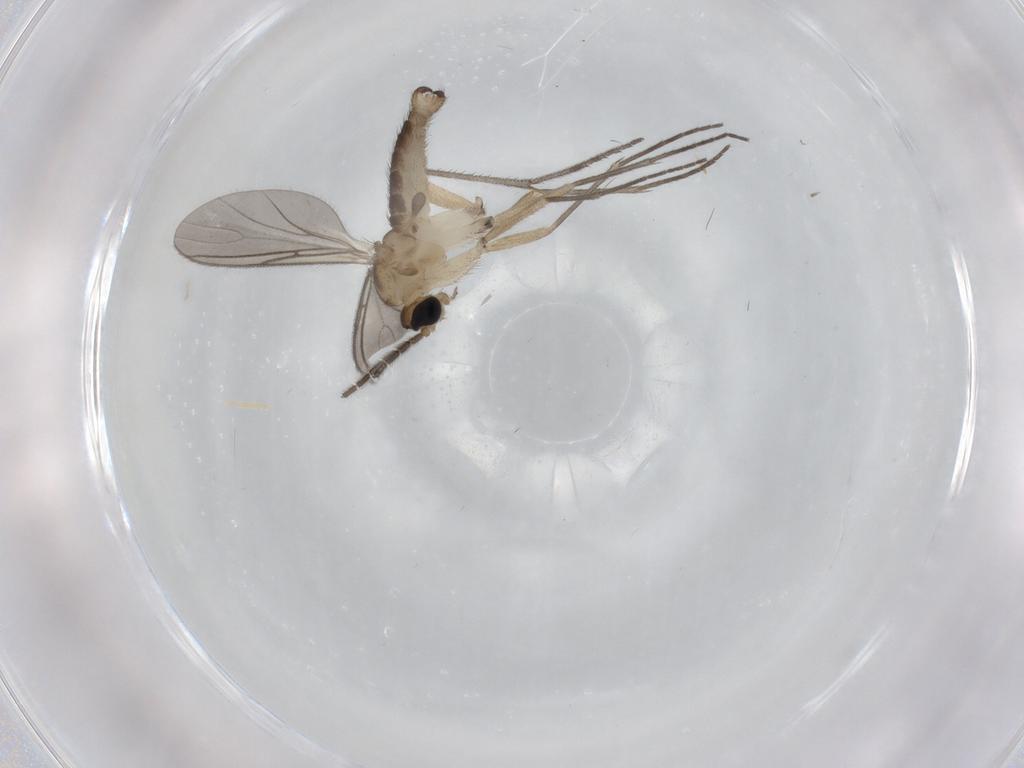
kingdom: Animalia
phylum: Arthropoda
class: Insecta
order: Diptera
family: Sciaridae
